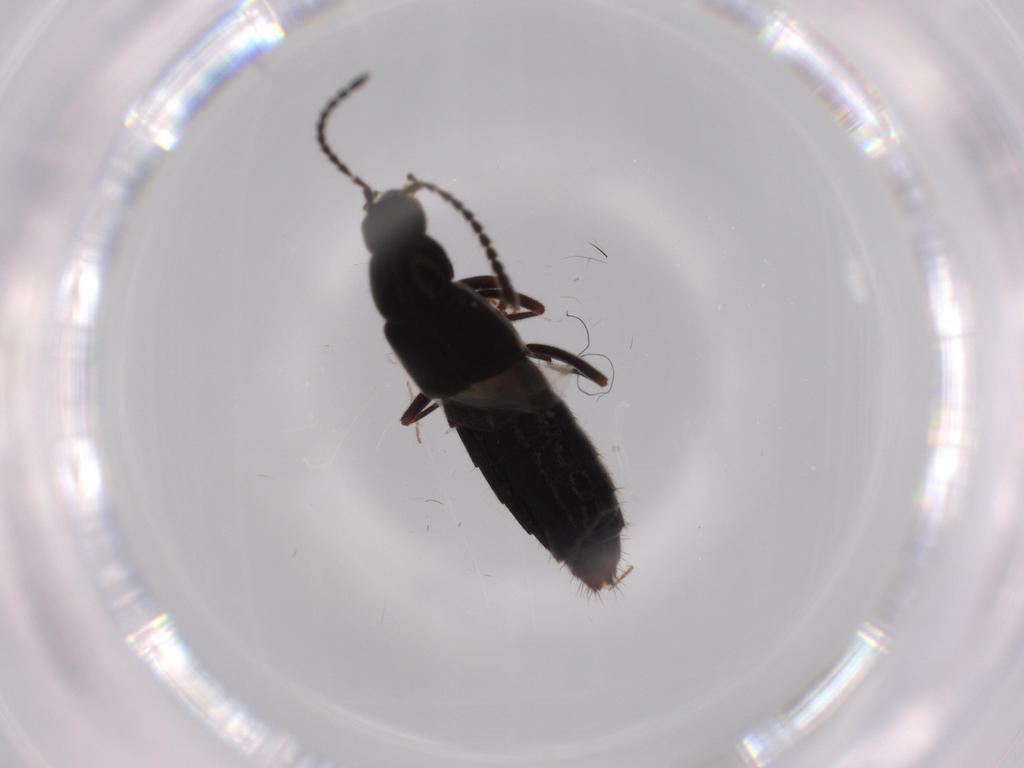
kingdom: Animalia
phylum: Arthropoda
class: Insecta
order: Coleoptera
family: Staphylinidae
